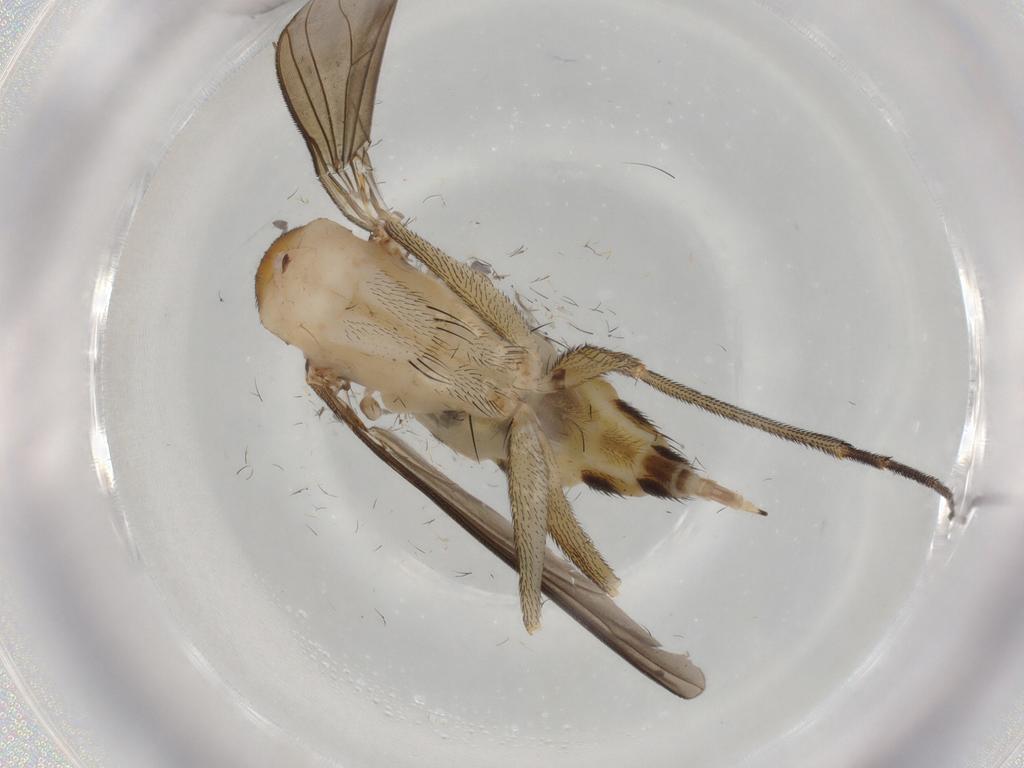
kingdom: Animalia
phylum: Arthropoda
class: Insecta
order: Diptera
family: Dolichopodidae
